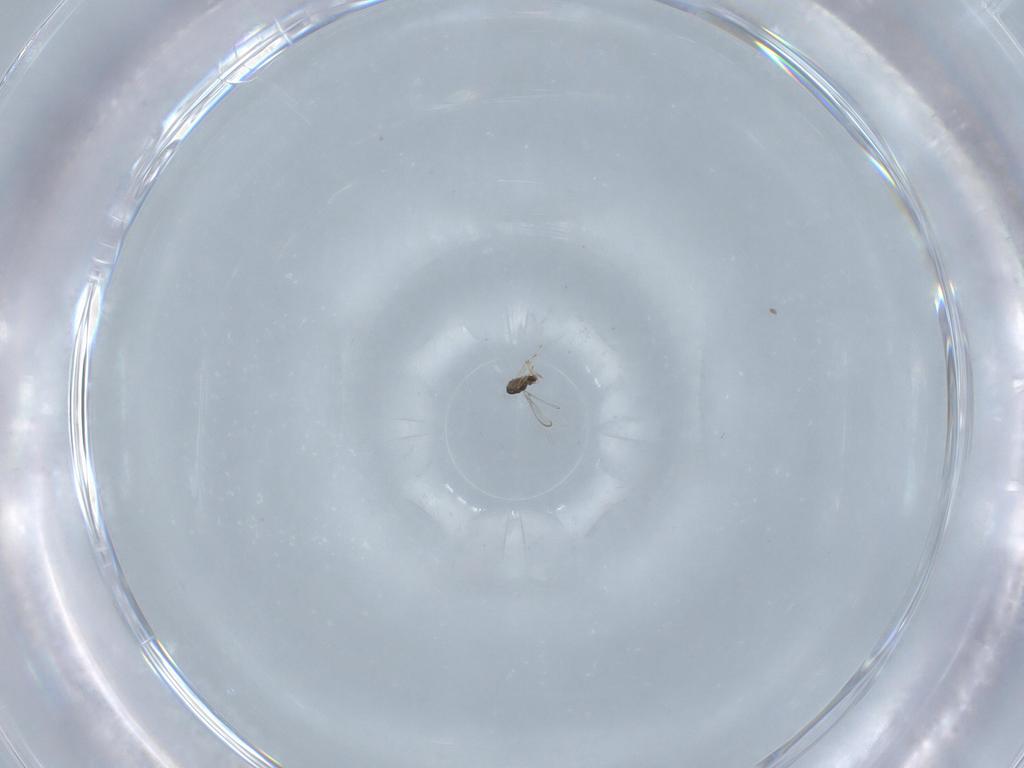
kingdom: Animalia
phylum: Arthropoda
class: Insecta
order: Hymenoptera
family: Mymaridae
